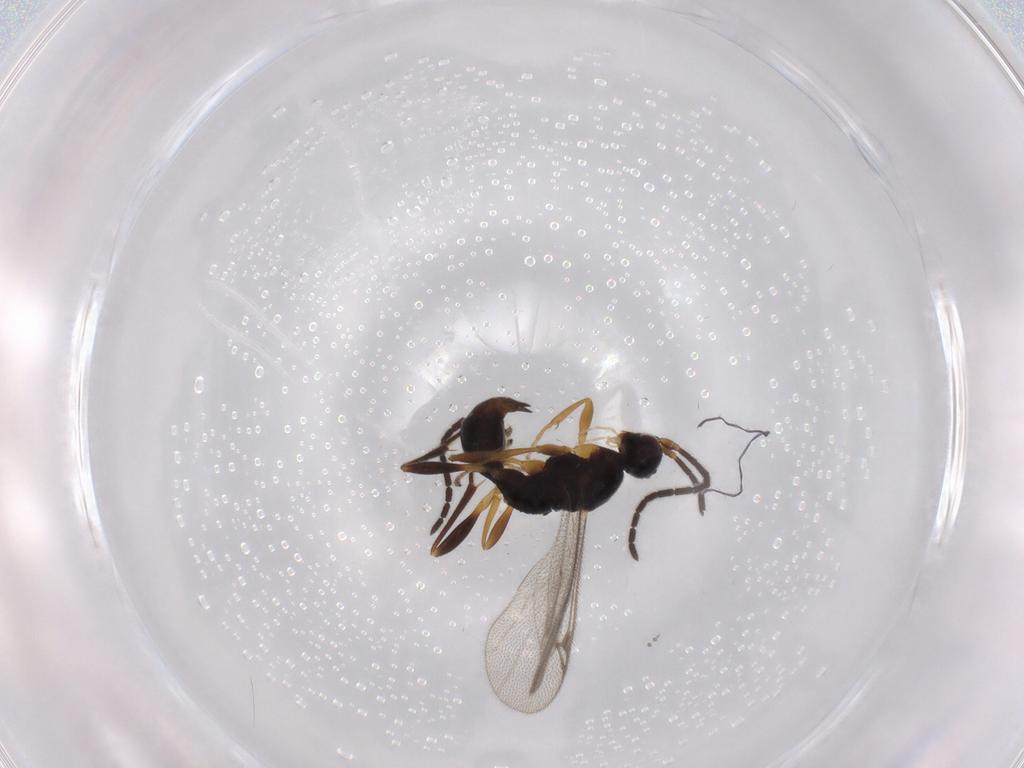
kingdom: Animalia
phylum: Arthropoda
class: Insecta
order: Hymenoptera
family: Proctotrupidae
